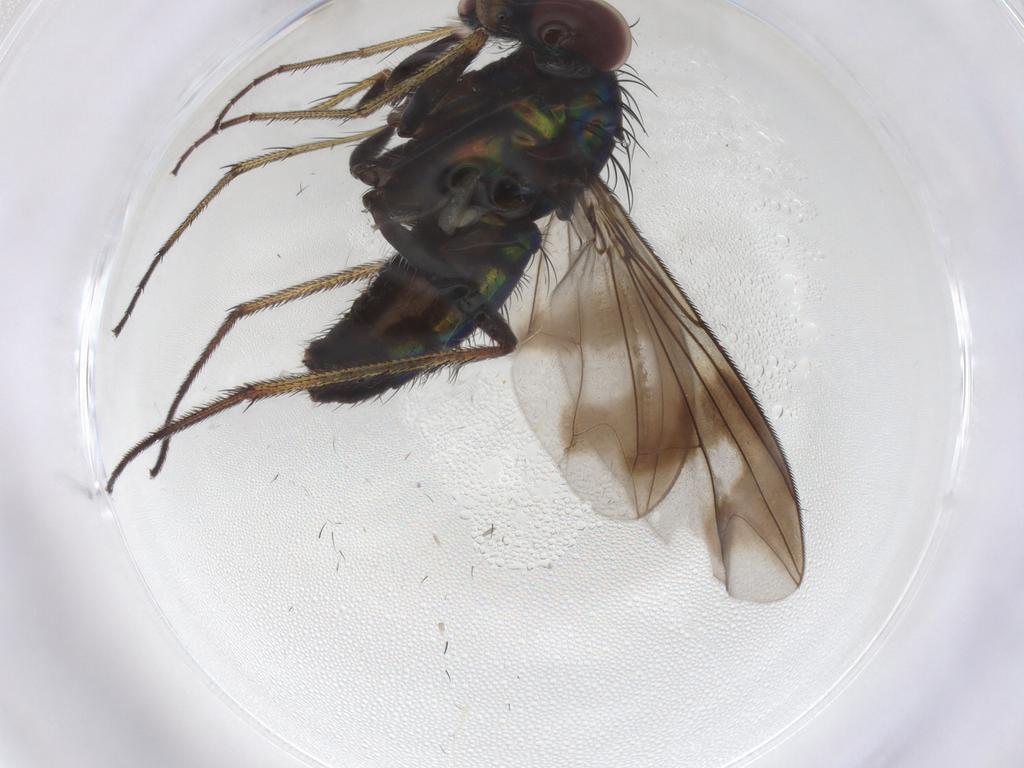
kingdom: Animalia
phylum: Arthropoda
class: Insecta
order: Diptera
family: Dolichopodidae
